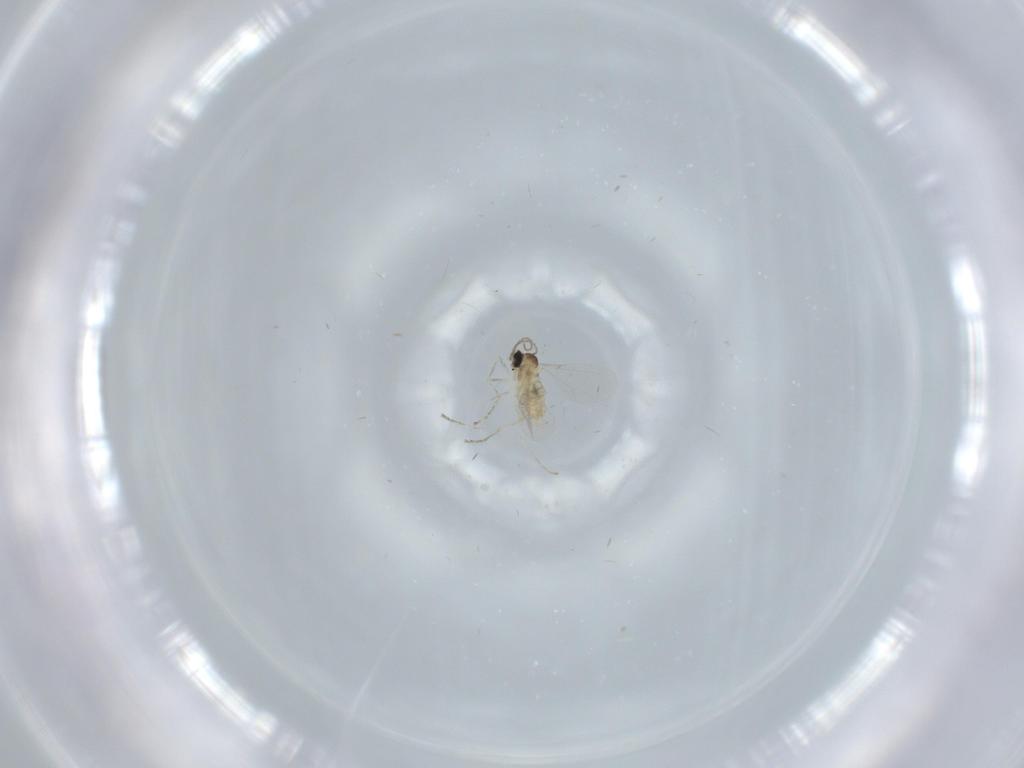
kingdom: Animalia
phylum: Arthropoda
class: Insecta
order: Diptera
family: Cecidomyiidae
